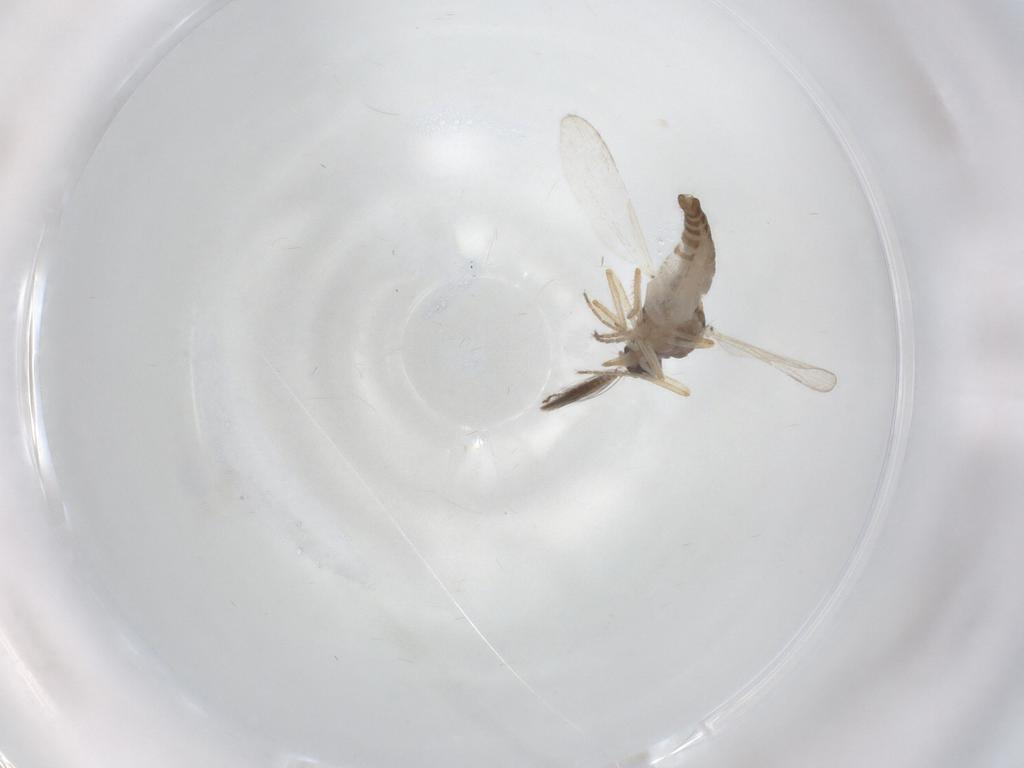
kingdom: Animalia
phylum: Arthropoda
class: Insecta
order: Diptera
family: Ceratopogonidae
